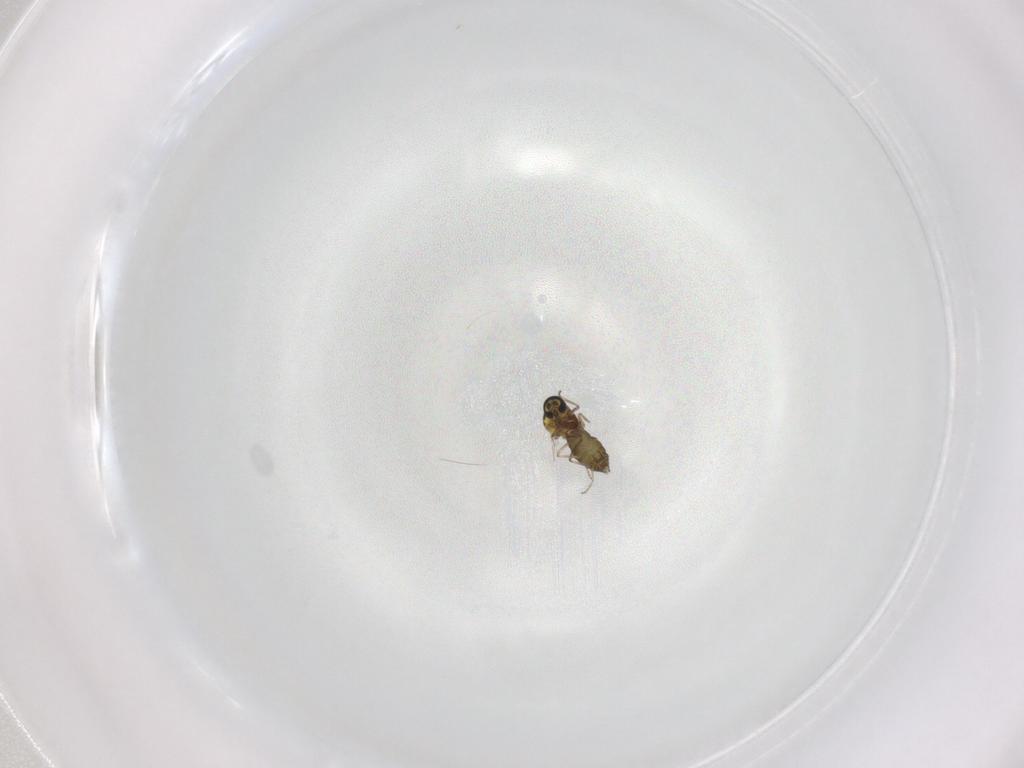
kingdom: Animalia
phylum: Arthropoda
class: Insecta
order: Diptera
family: Ceratopogonidae
